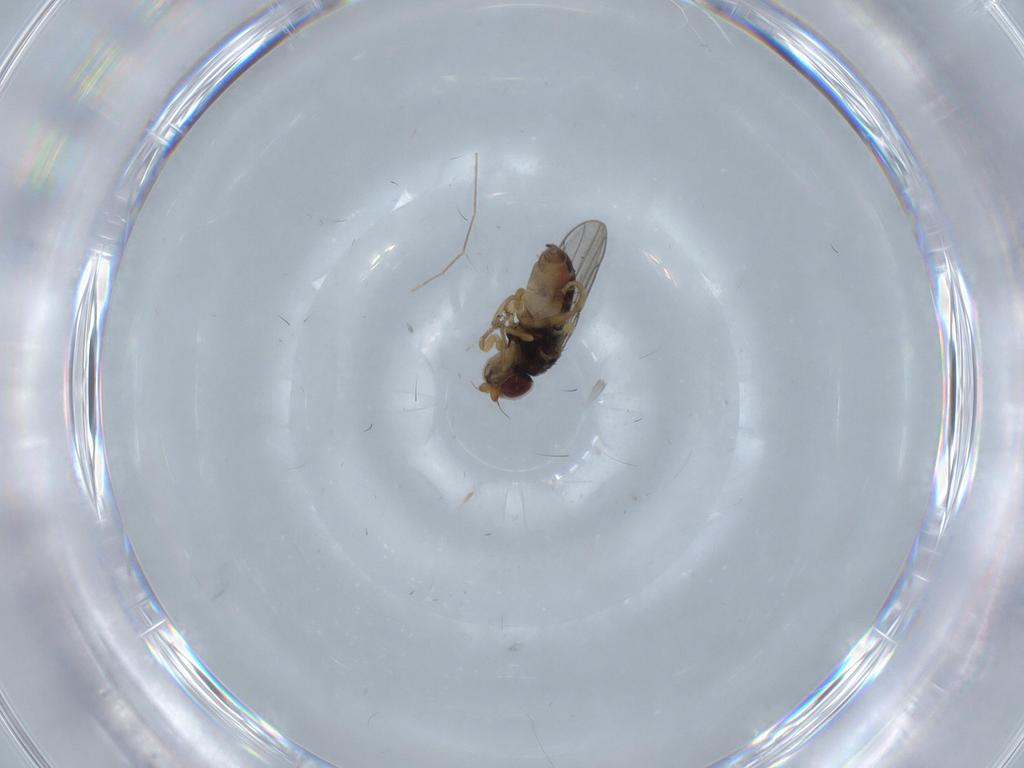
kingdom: Animalia
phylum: Arthropoda
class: Insecta
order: Diptera
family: Chloropidae
